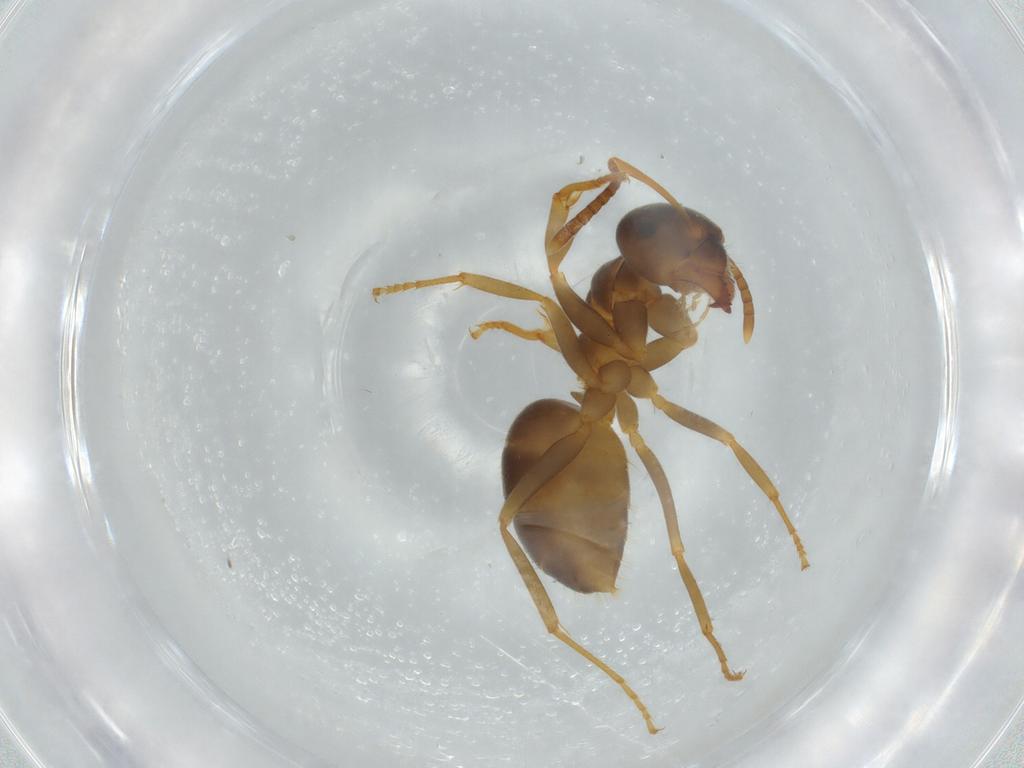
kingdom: Animalia
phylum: Arthropoda
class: Insecta
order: Hymenoptera
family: Formicidae
